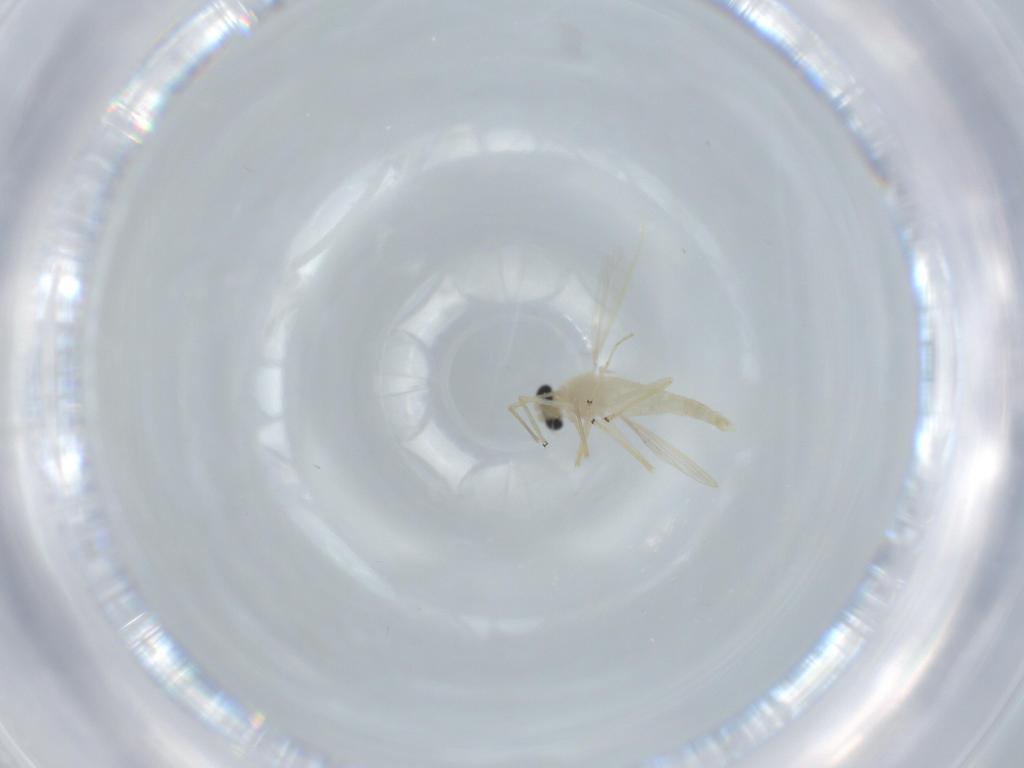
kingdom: Animalia
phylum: Arthropoda
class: Insecta
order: Diptera
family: Chironomidae
